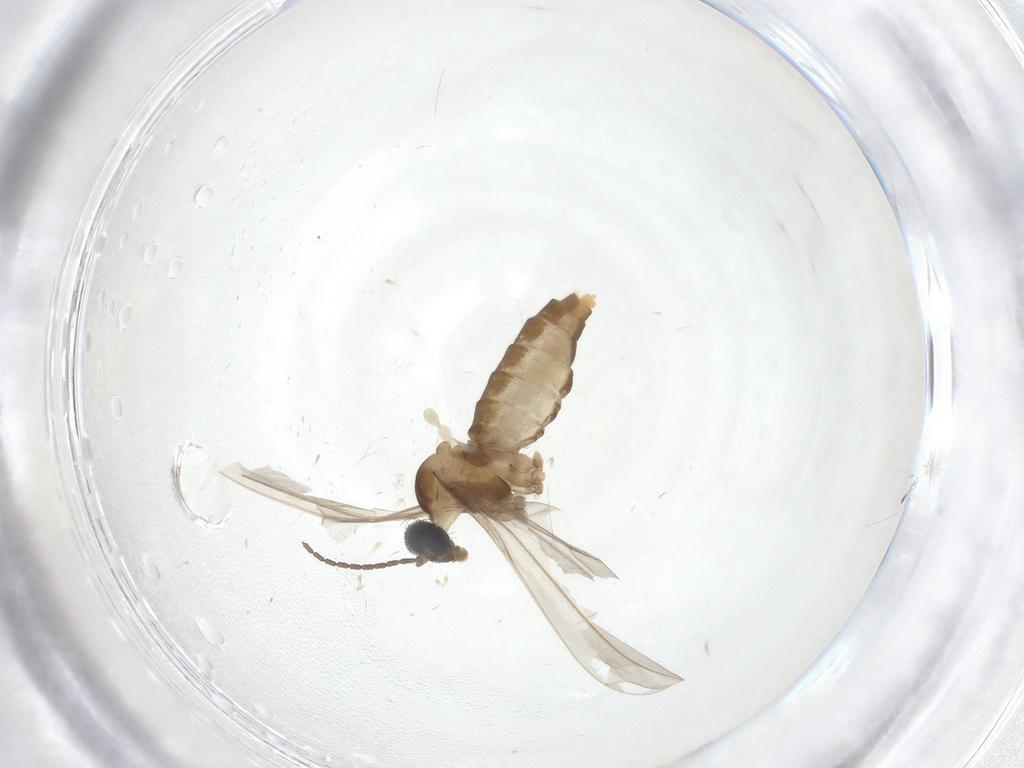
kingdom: Animalia
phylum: Arthropoda
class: Insecta
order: Diptera
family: Cecidomyiidae
